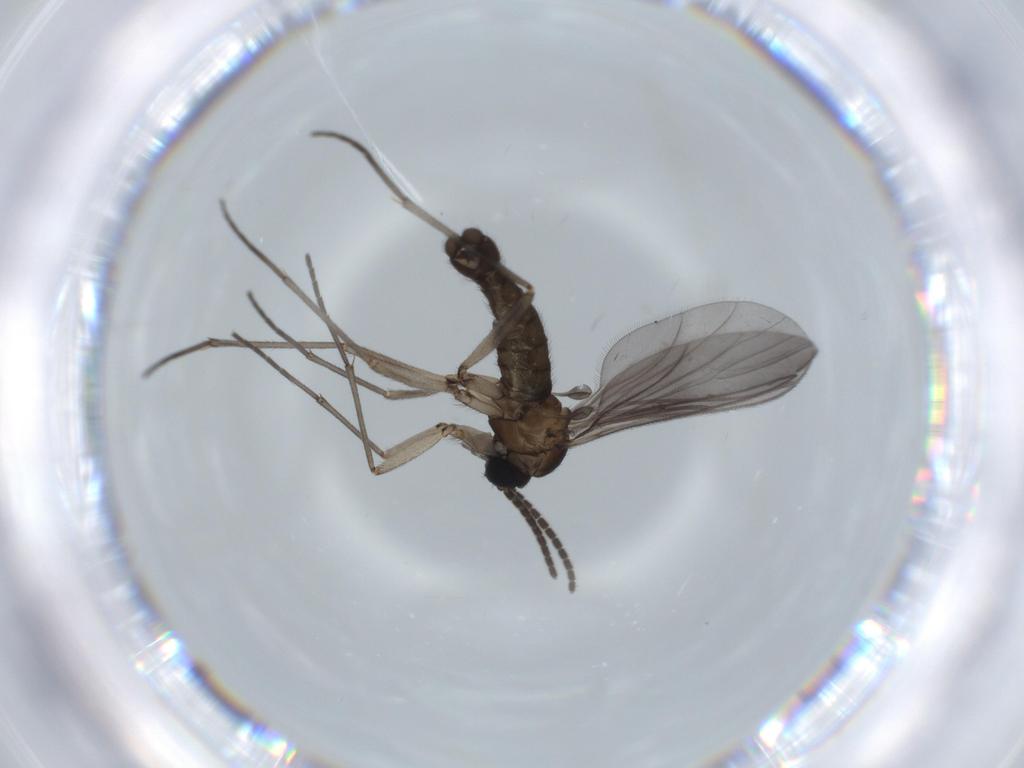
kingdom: Animalia
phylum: Arthropoda
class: Insecta
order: Diptera
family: Sciaridae
